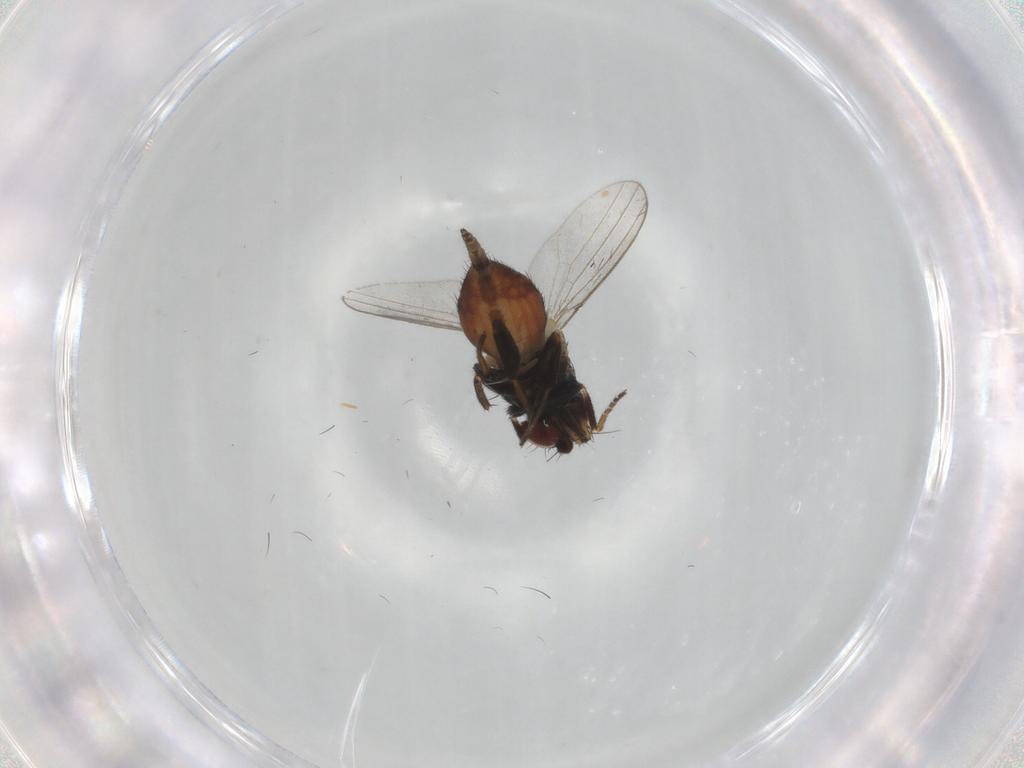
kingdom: Animalia
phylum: Arthropoda
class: Insecta
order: Diptera
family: Milichiidae
